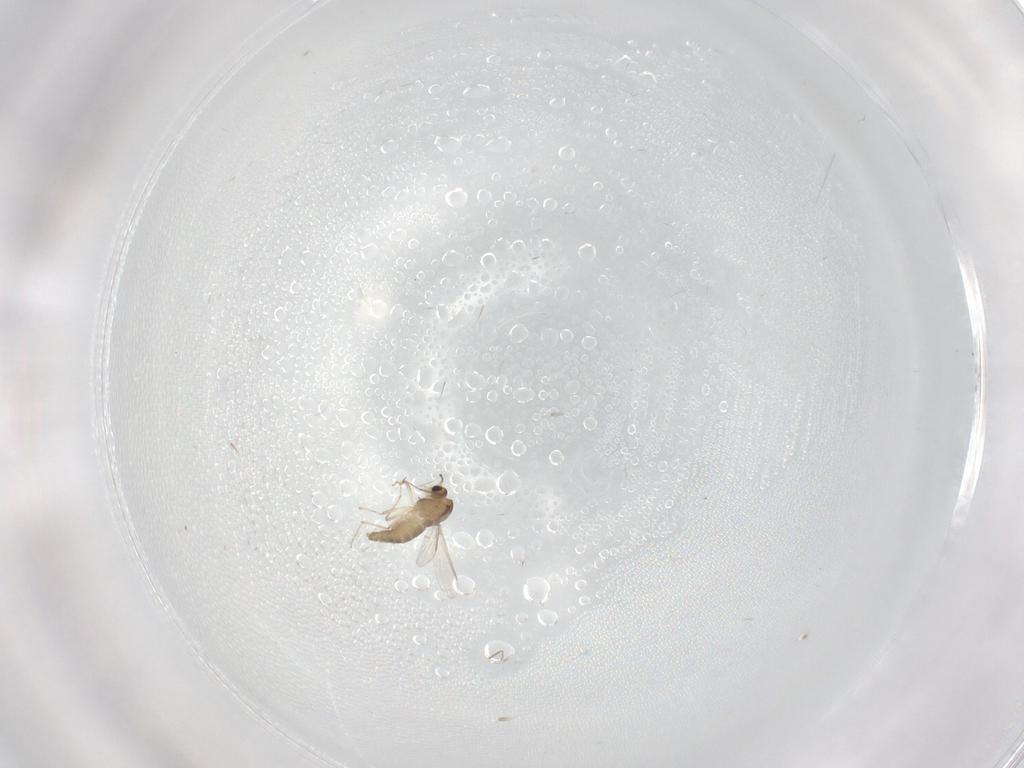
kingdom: Animalia
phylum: Arthropoda
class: Insecta
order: Diptera
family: Chironomidae
